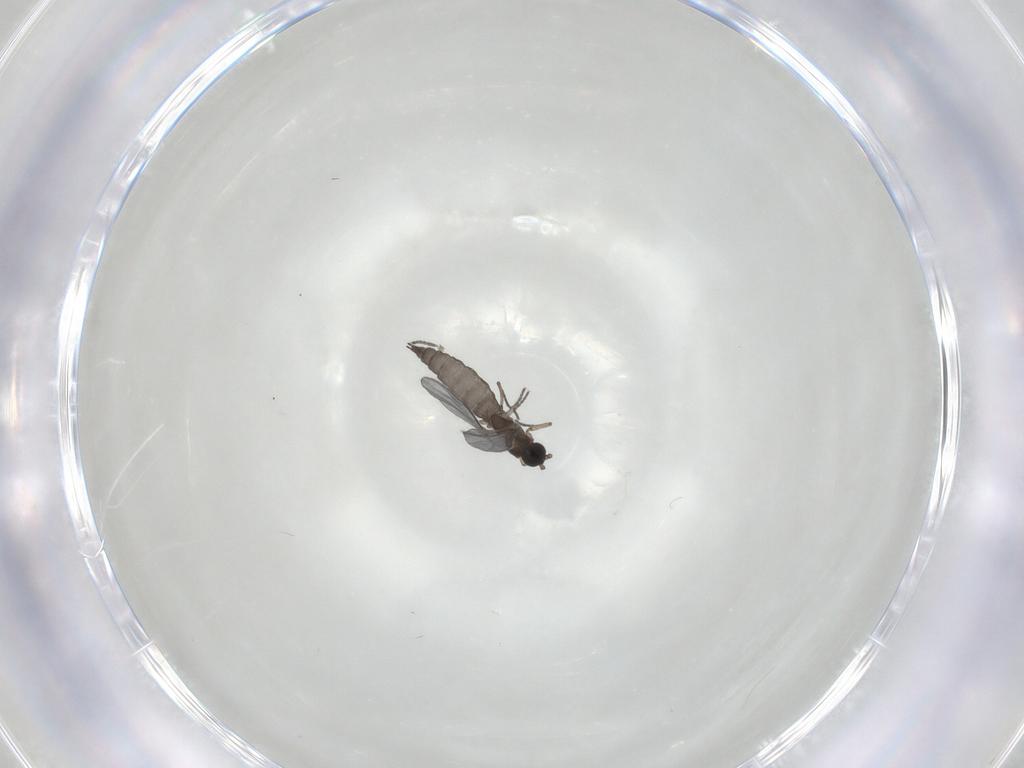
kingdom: Animalia
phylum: Arthropoda
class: Insecta
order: Diptera
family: Sciaridae
